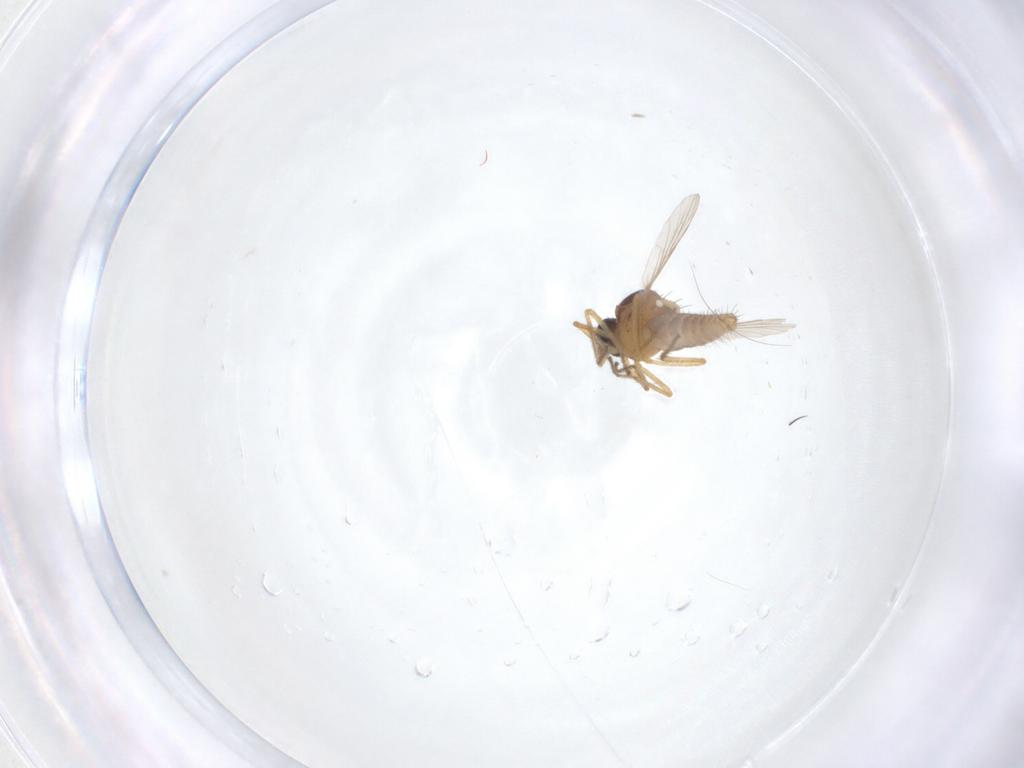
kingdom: Animalia
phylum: Arthropoda
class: Insecta
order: Diptera
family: Ceratopogonidae
